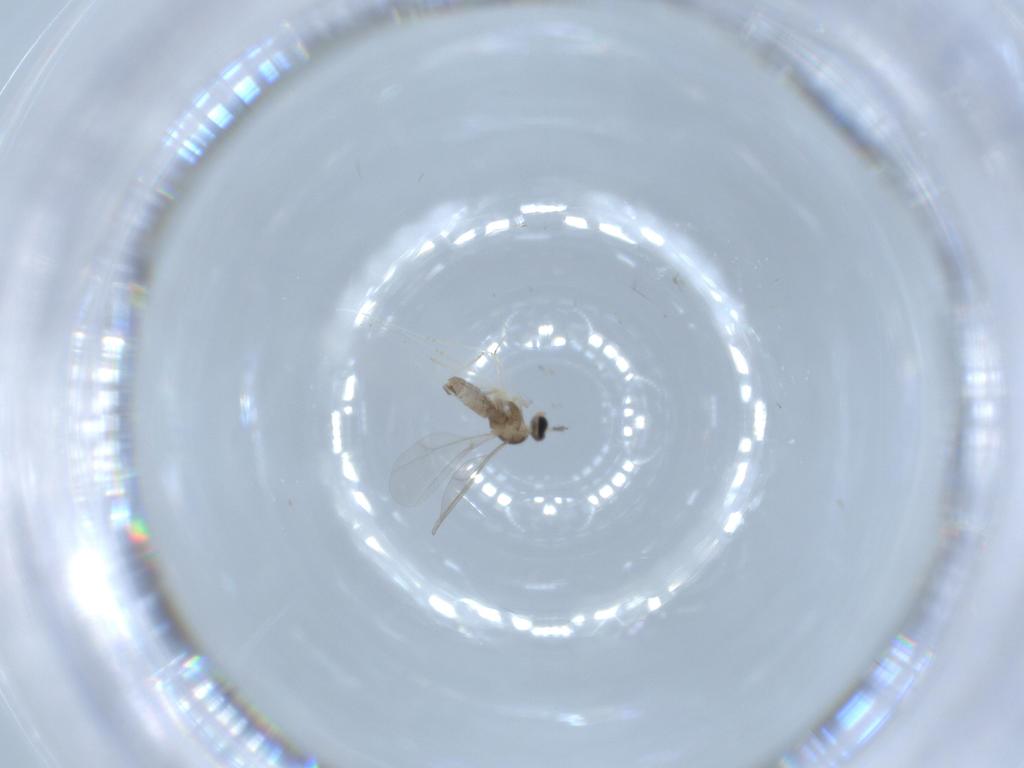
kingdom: Animalia
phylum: Arthropoda
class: Insecta
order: Diptera
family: Cecidomyiidae
